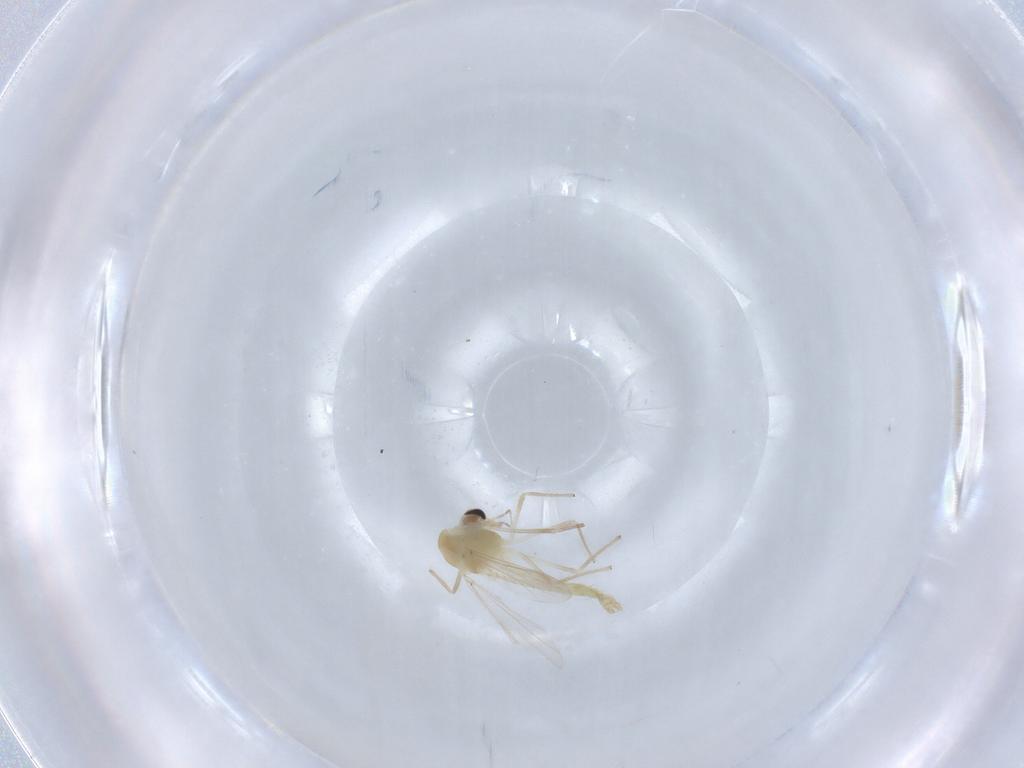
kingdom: Animalia
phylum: Arthropoda
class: Insecta
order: Diptera
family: Chironomidae
